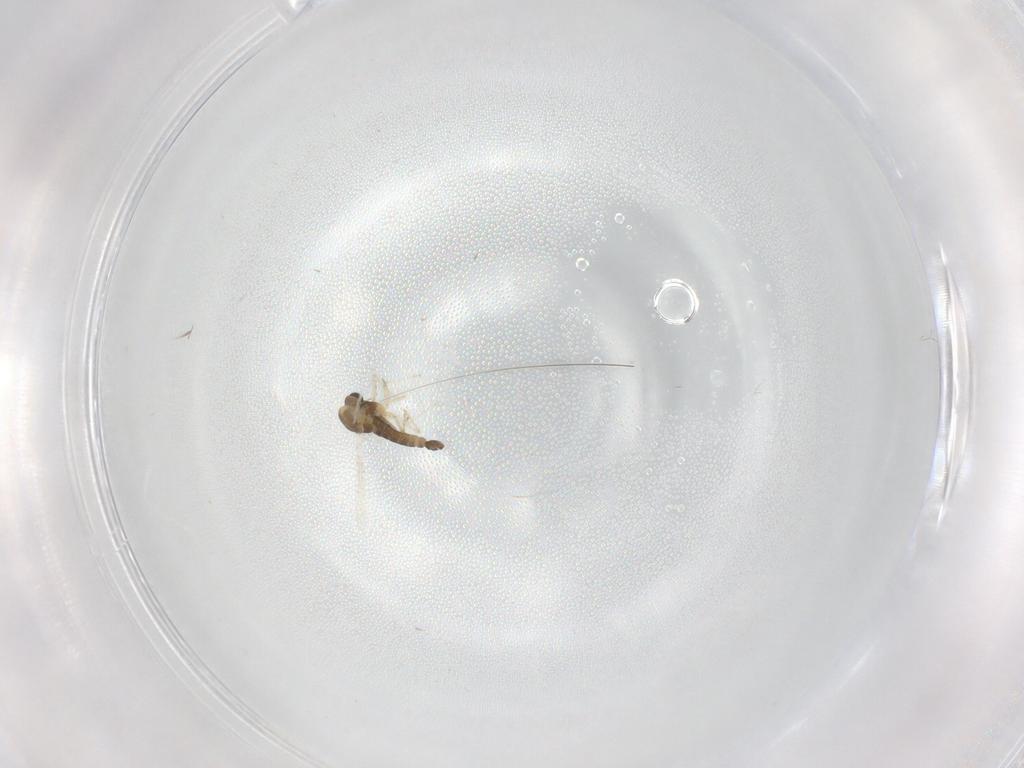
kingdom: Animalia
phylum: Arthropoda
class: Insecta
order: Diptera
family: Chironomidae
